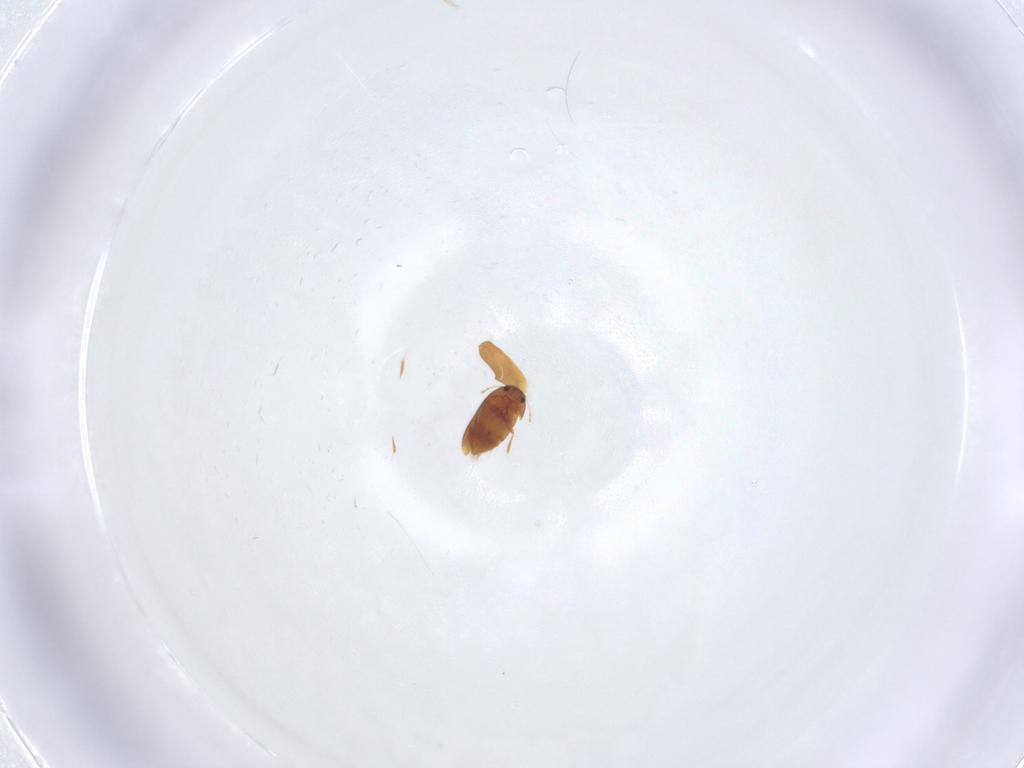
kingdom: Animalia
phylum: Arthropoda
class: Insecta
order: Coleoptera
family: Ptiliidae
